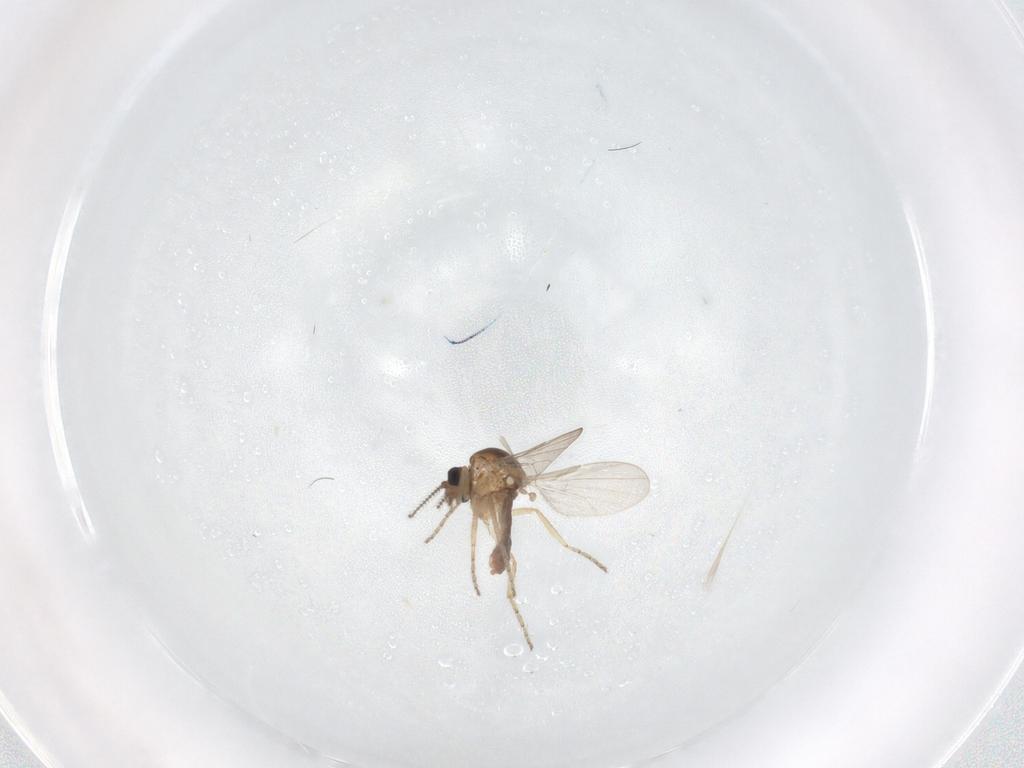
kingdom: Animalia
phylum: Arthropoda
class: Insecta
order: Diptera
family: Ceratopogonidae
